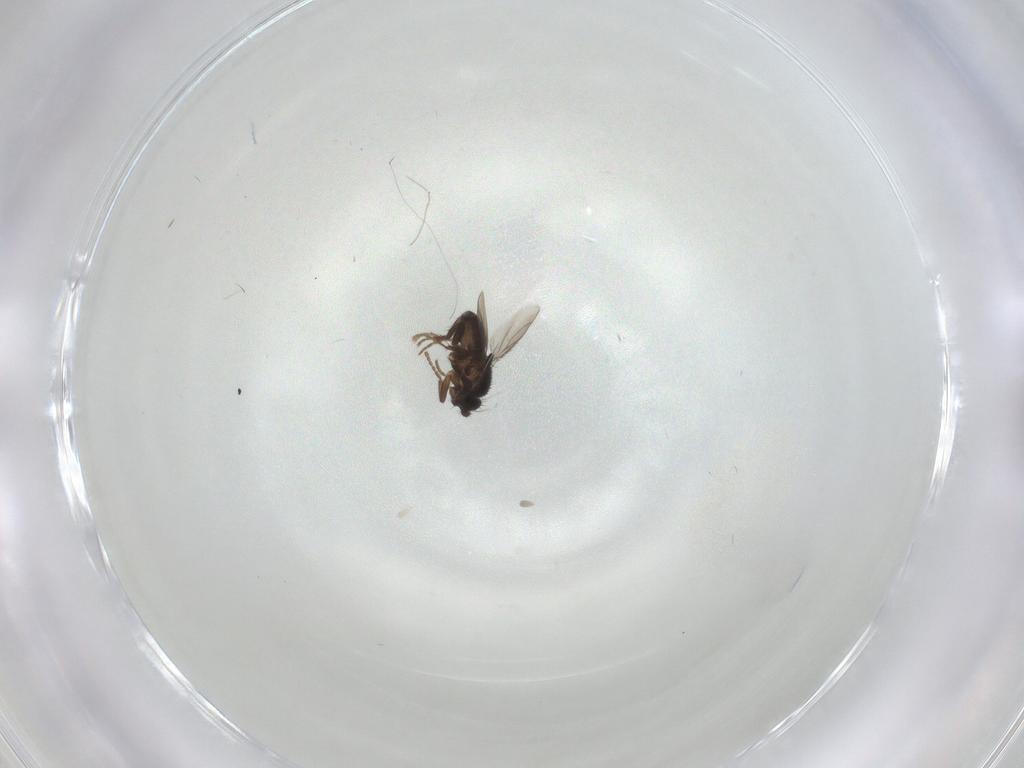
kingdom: Animalia
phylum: Arthropoda
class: Insecta
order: Diptera
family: Cecidomyiidae
